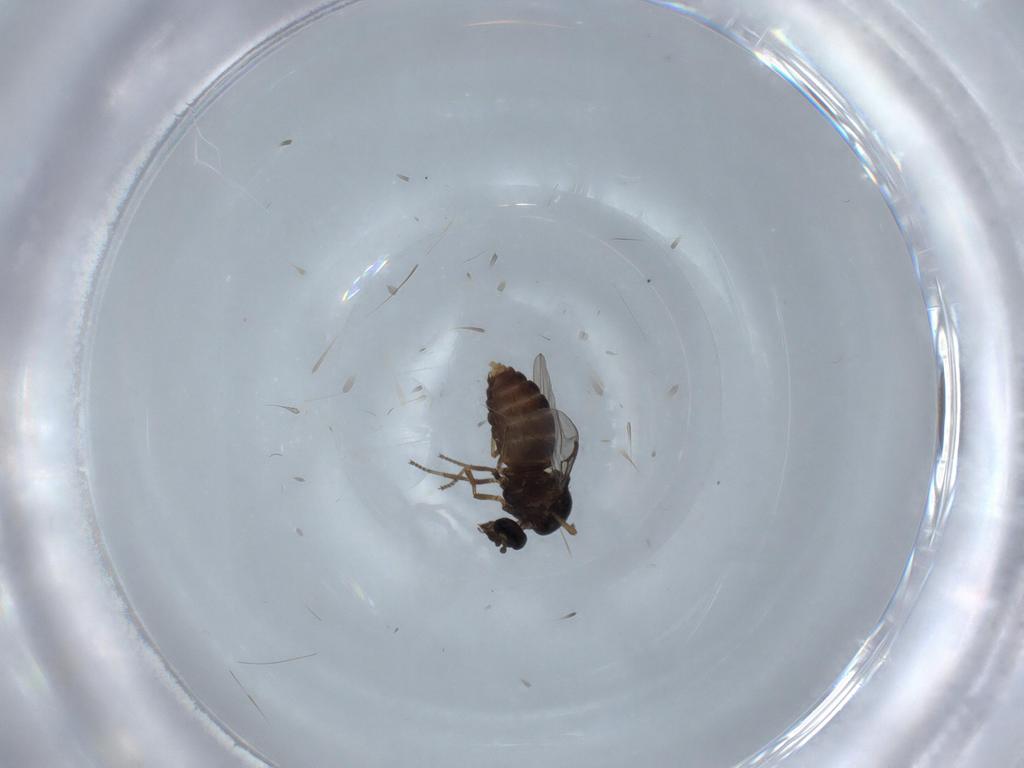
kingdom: Animalia
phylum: Arthropoda
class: Insecta
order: Diptera
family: Ceratopogonidae
